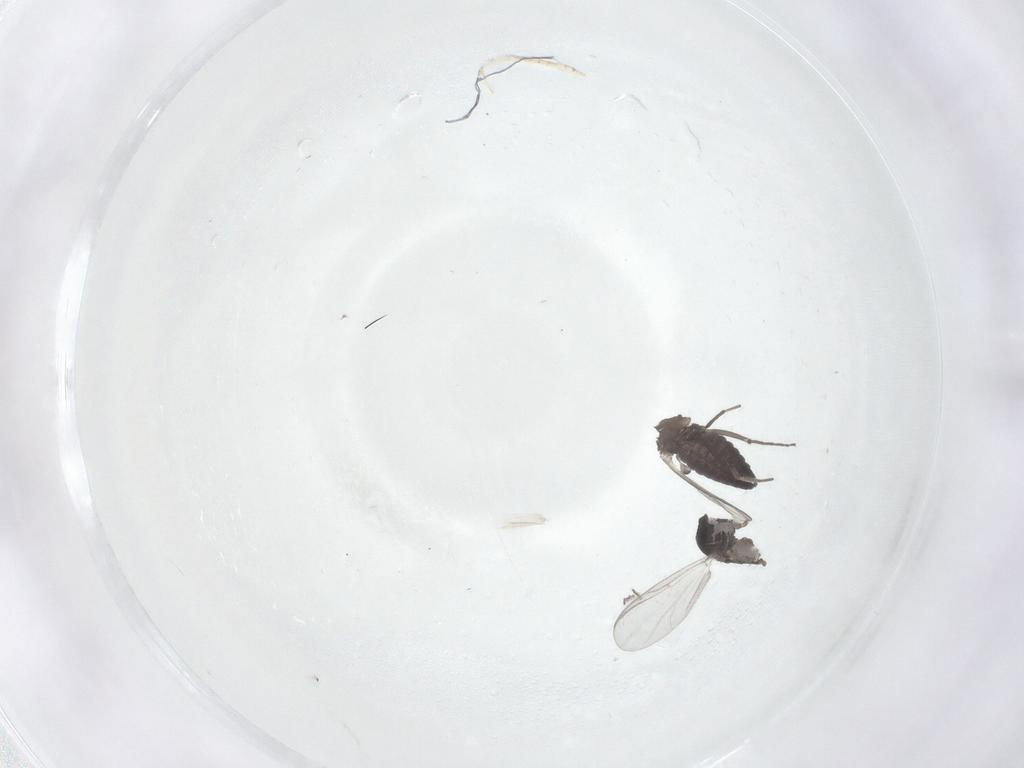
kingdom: Animalia
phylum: Arthropoda
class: Insecta
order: Diptera
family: Chironomidae
